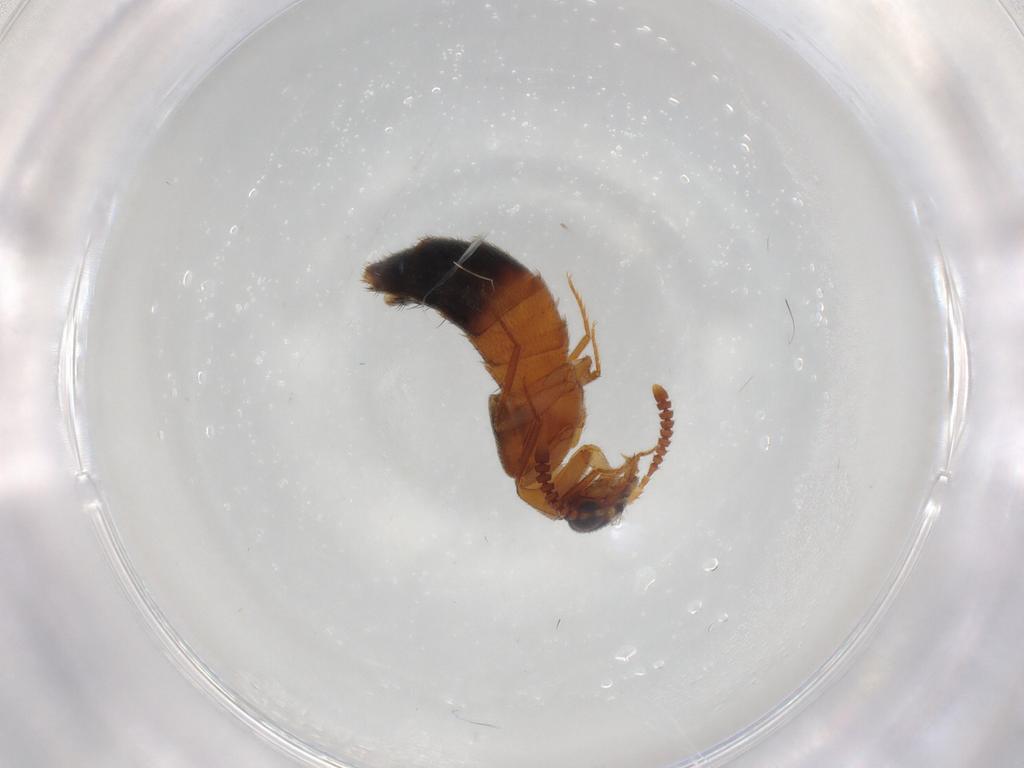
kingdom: Animalia
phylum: Arthropoda
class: Insecta
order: Coleoptera
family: Staphylinidae
